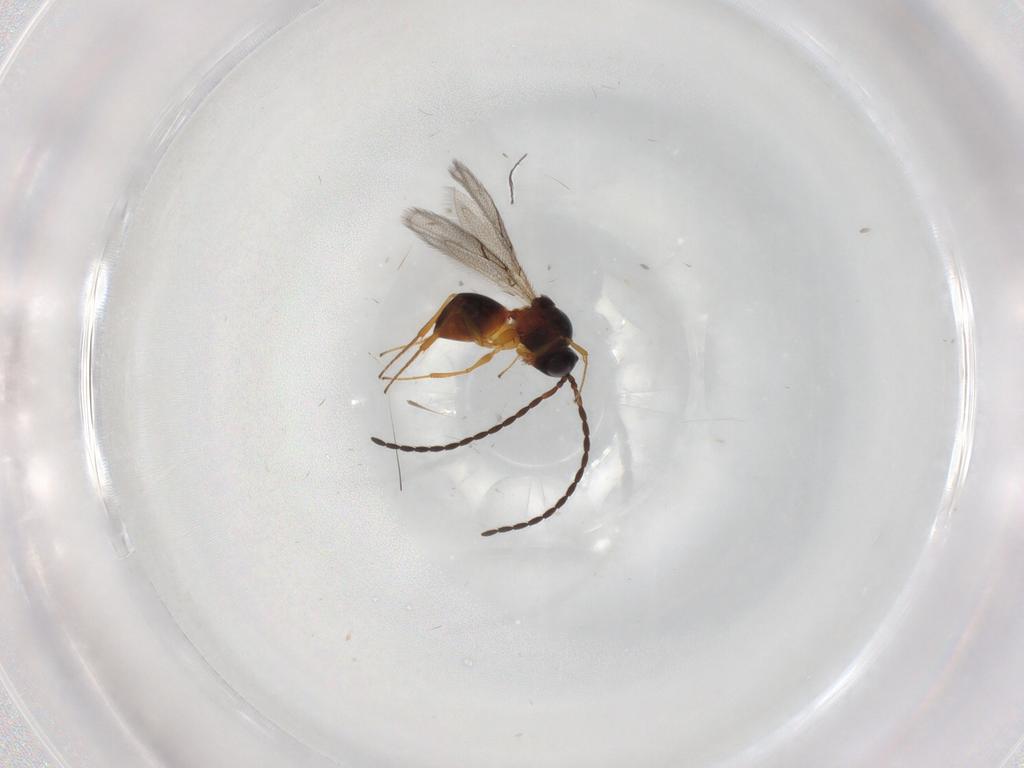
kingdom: Animalia
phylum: Arthropoda
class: Insecta
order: Hymenoptera
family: Figitidae
